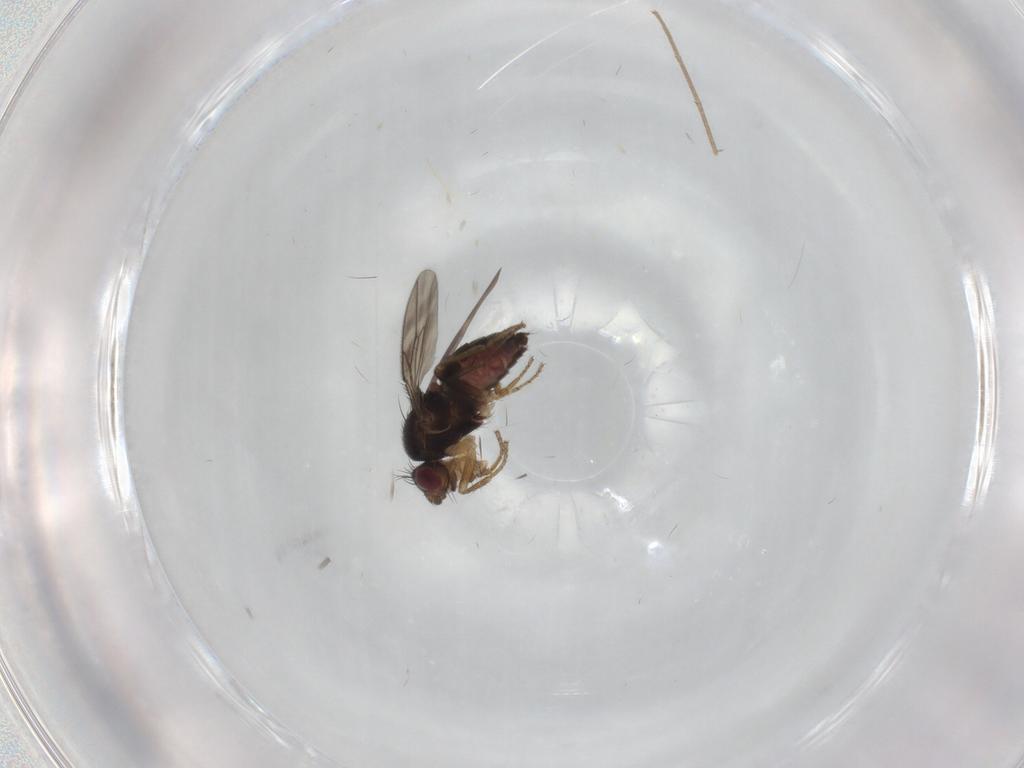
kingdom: Animalia
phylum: Arthropoda
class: Insecta
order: Diptera
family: Sphaeroceridae
